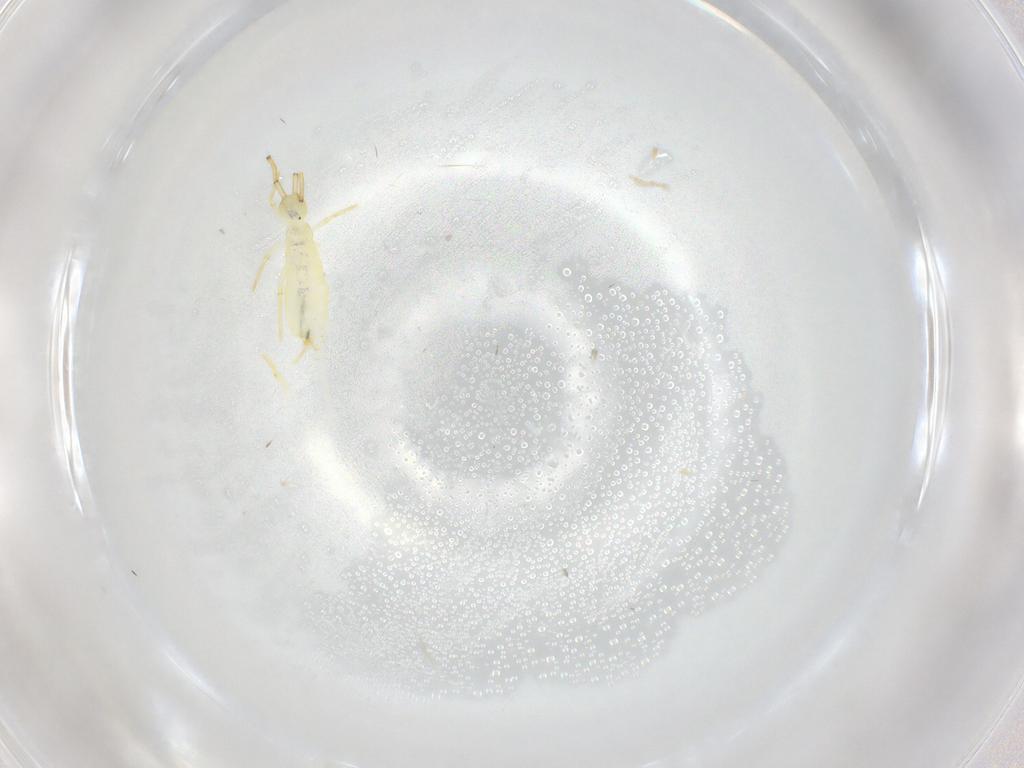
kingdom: Animalia
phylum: Arthropoda
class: Collembola
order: Entomobryomorpha
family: Paronellidae
